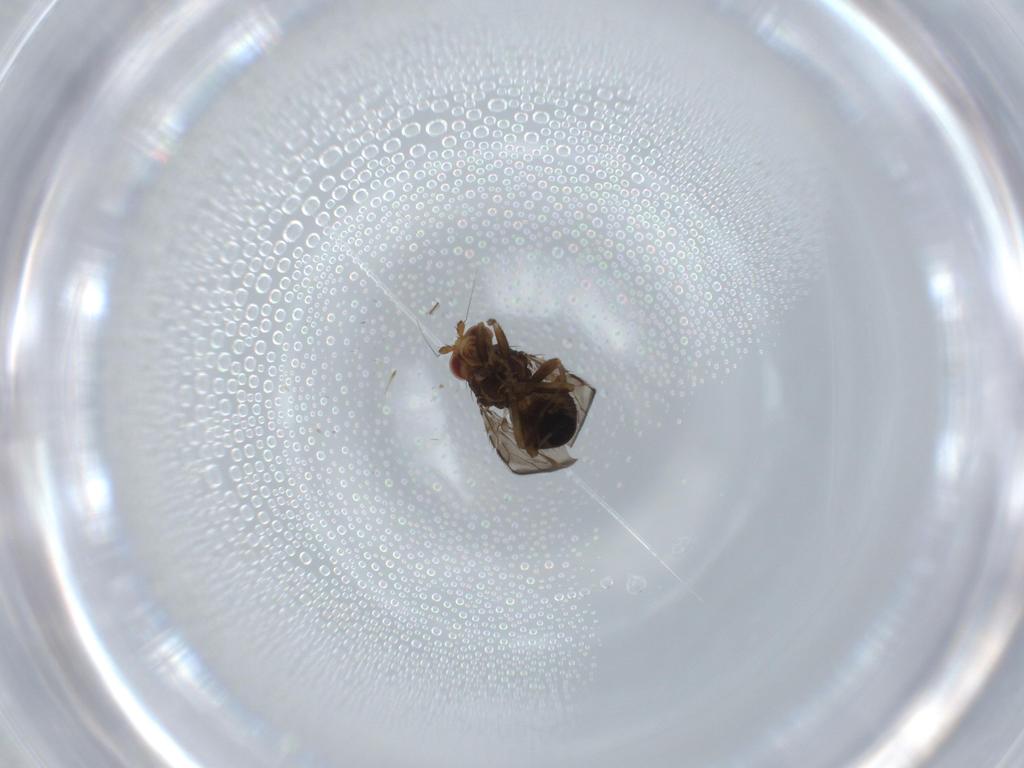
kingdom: Animalia
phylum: Arthropoda
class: Insecta
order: Diptera
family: Sphaeroceridae
